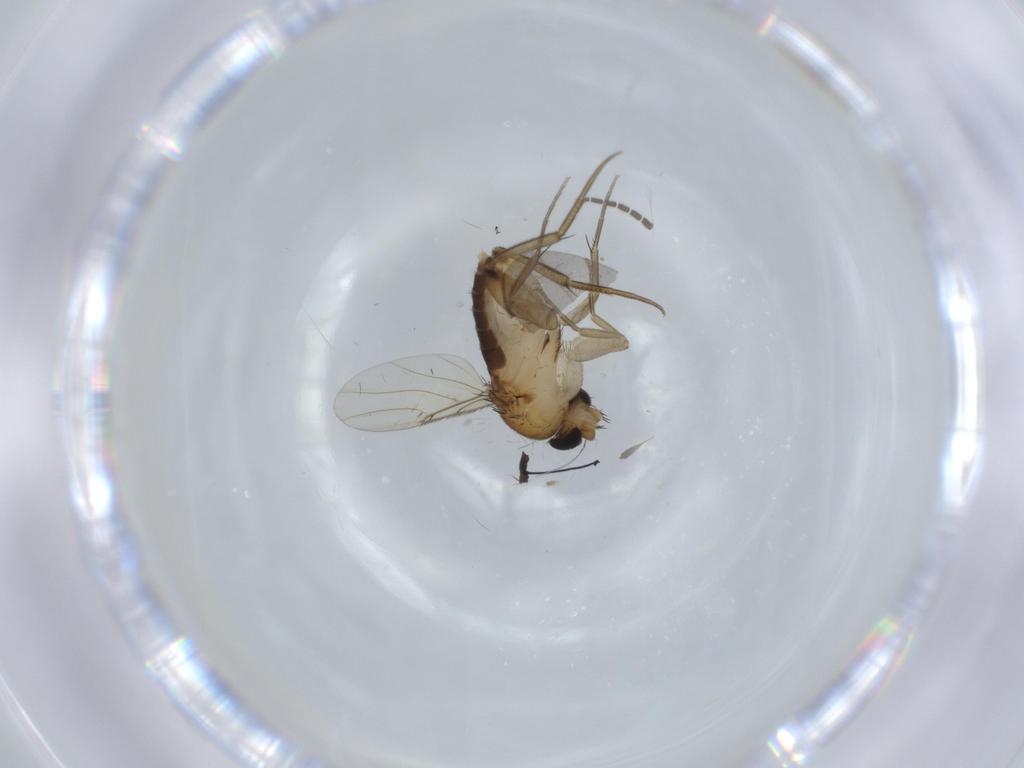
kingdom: Animalia
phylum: Arthropoda
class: Insecta
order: Diptera
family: Phoridae
